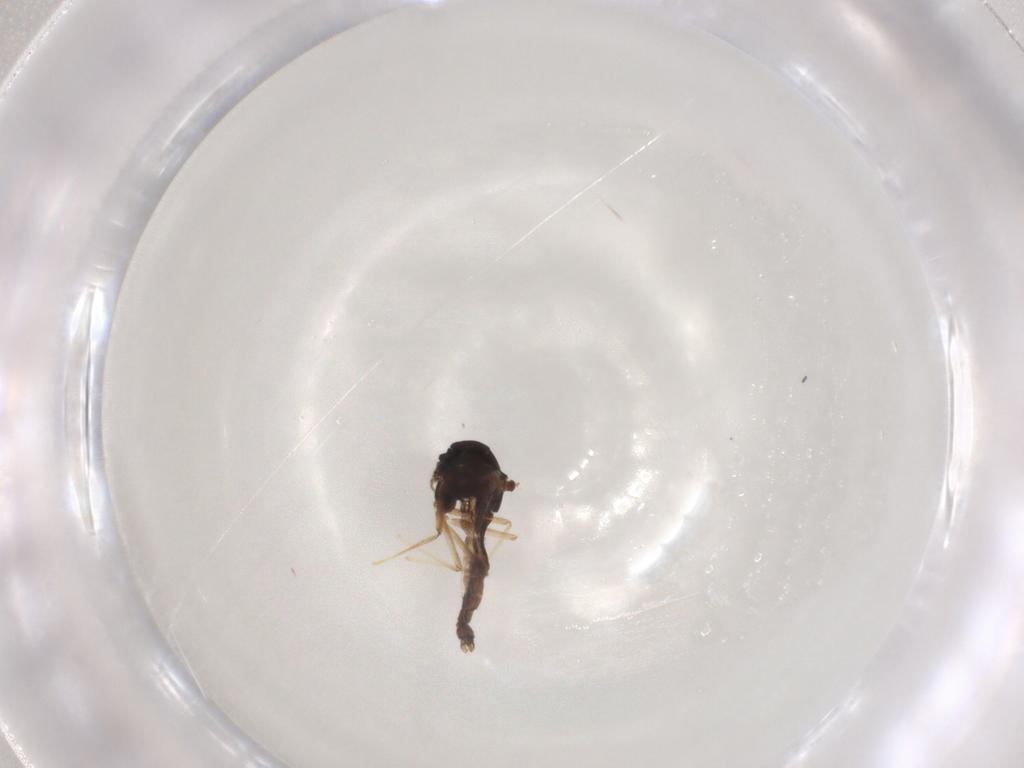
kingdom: Animalia
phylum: Arthropoda
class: Insecta
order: Diptera
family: Chironomidae
